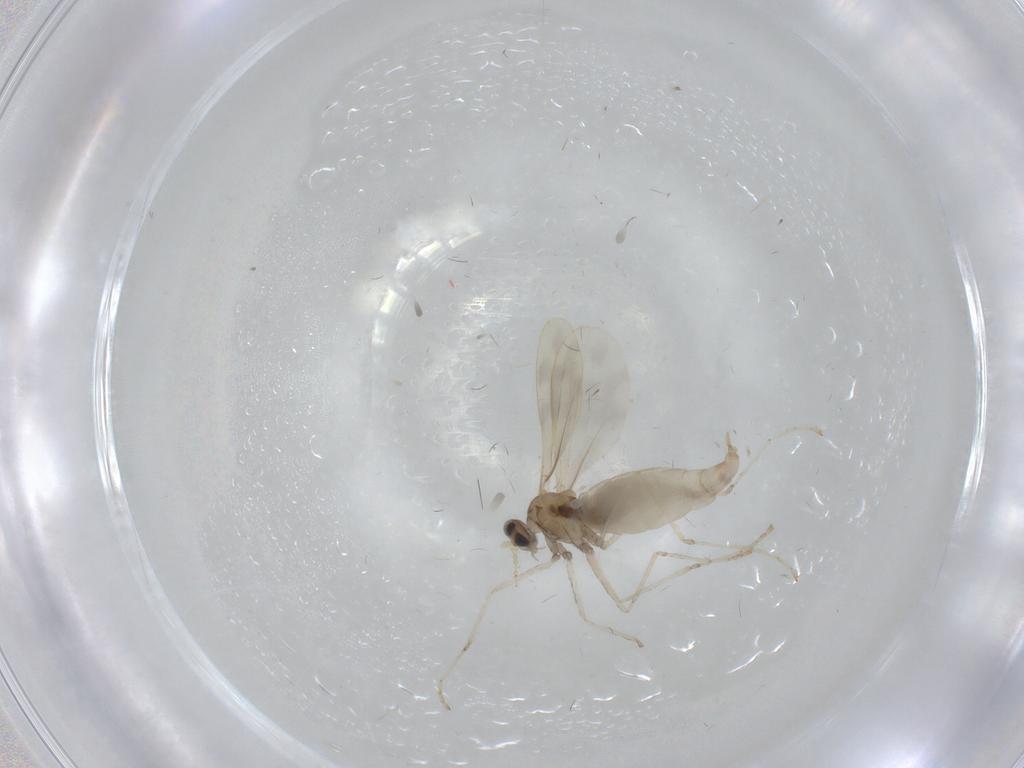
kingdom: Animalia
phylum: Arthropoda
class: Insecta
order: Diptera
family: Cecidomyiidae
